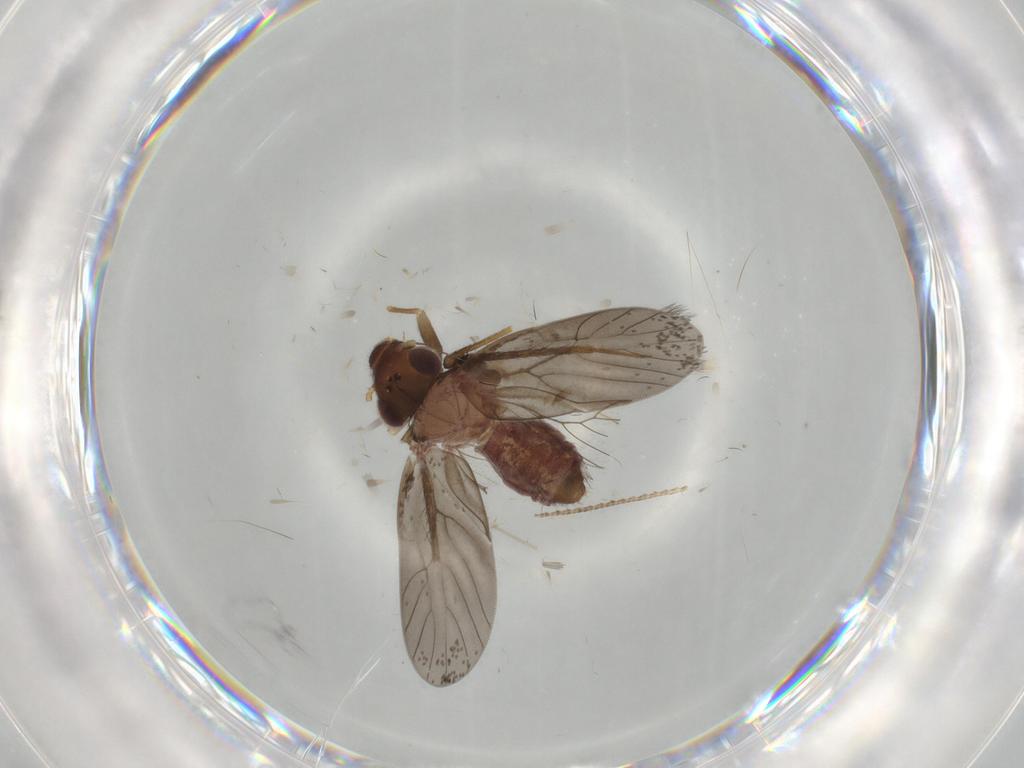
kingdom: Animalia
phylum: Arthropoda
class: Insecta
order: Psocodea
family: Lepidopsocidae
